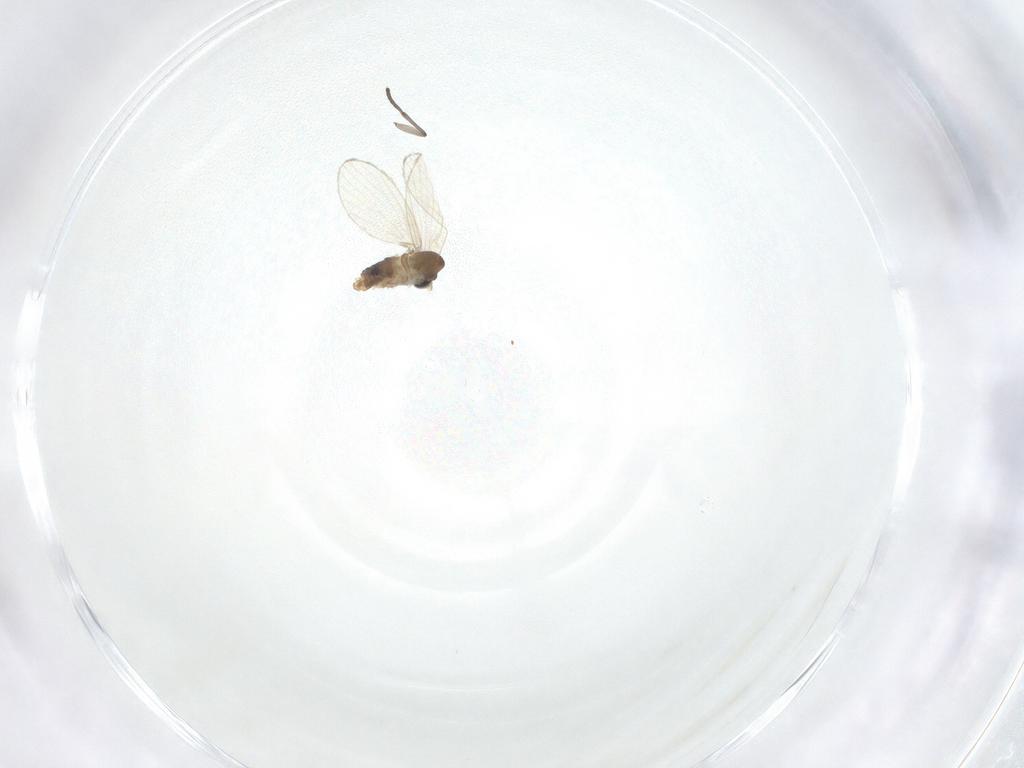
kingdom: Animalia
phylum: Arthropoda
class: Insecta
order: Diptera
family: Psychodidae
